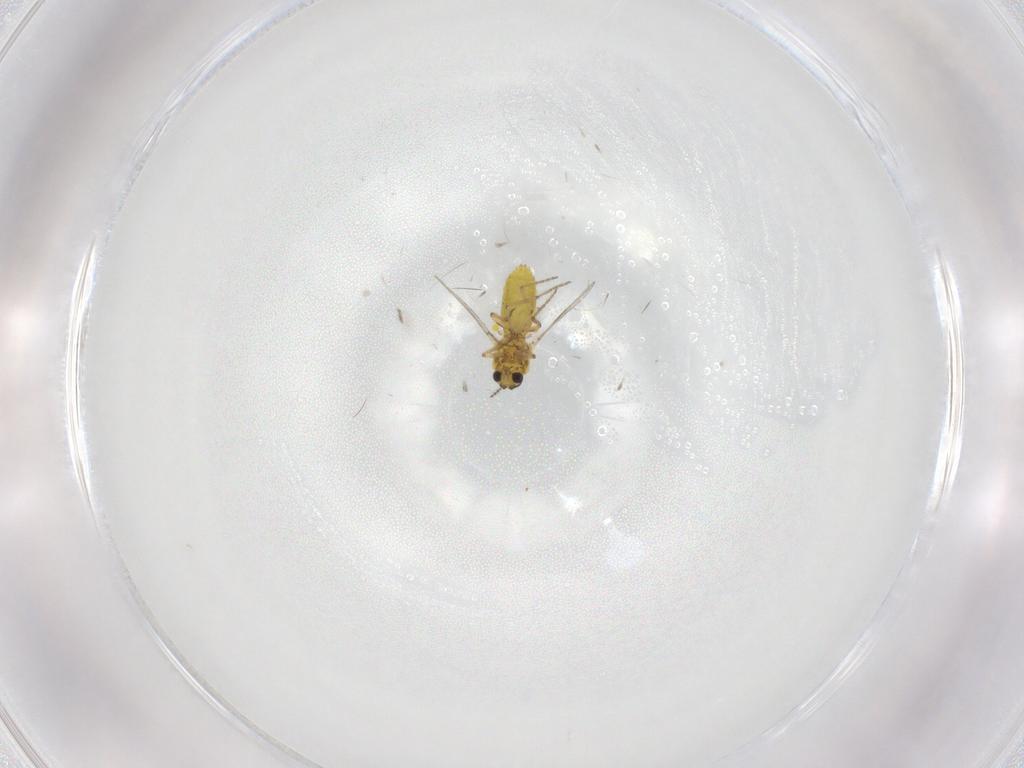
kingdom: Animalia
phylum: Arthropoda
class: Insecta
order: Diptera
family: Ceratopogonidae
